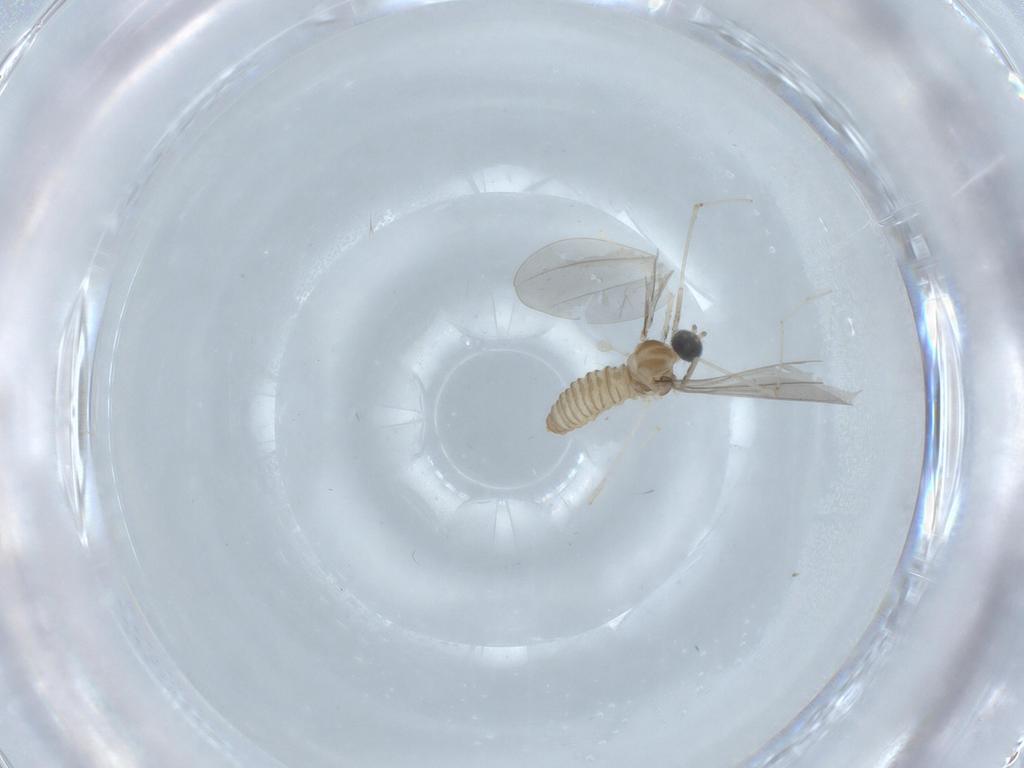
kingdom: Animalia
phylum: Arthropoda
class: Insecta
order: Diptera
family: Cecidomyiidae
